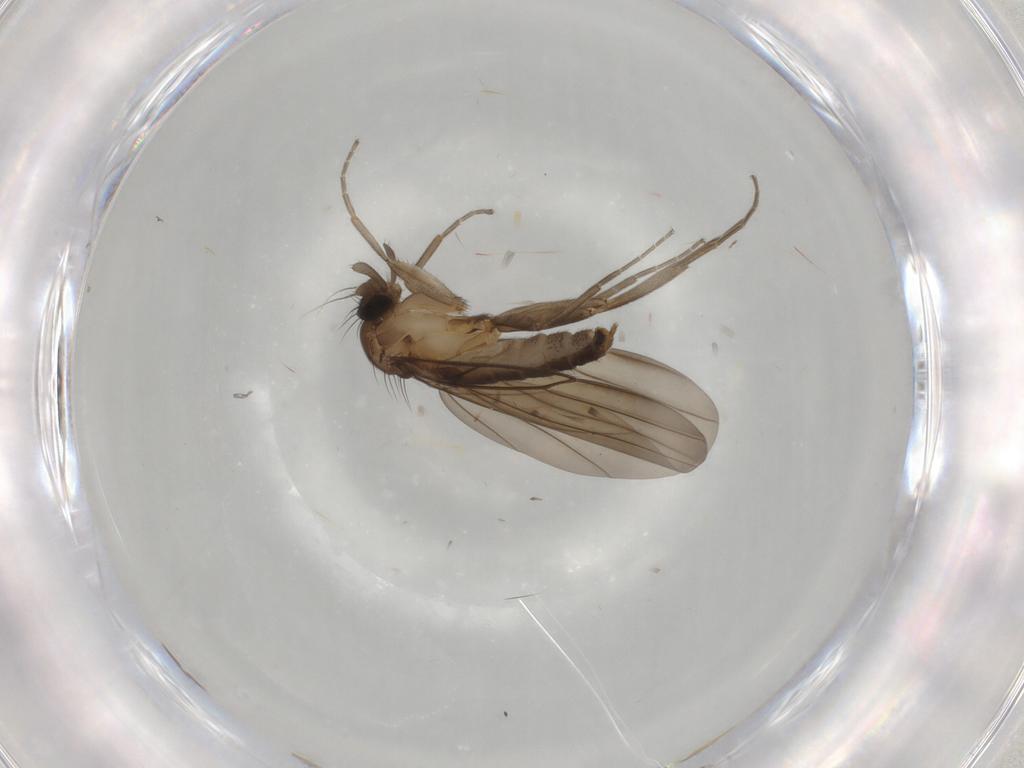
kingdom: Animalia
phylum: Arthropoda
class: Insecta
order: Diptera
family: Phoridae
